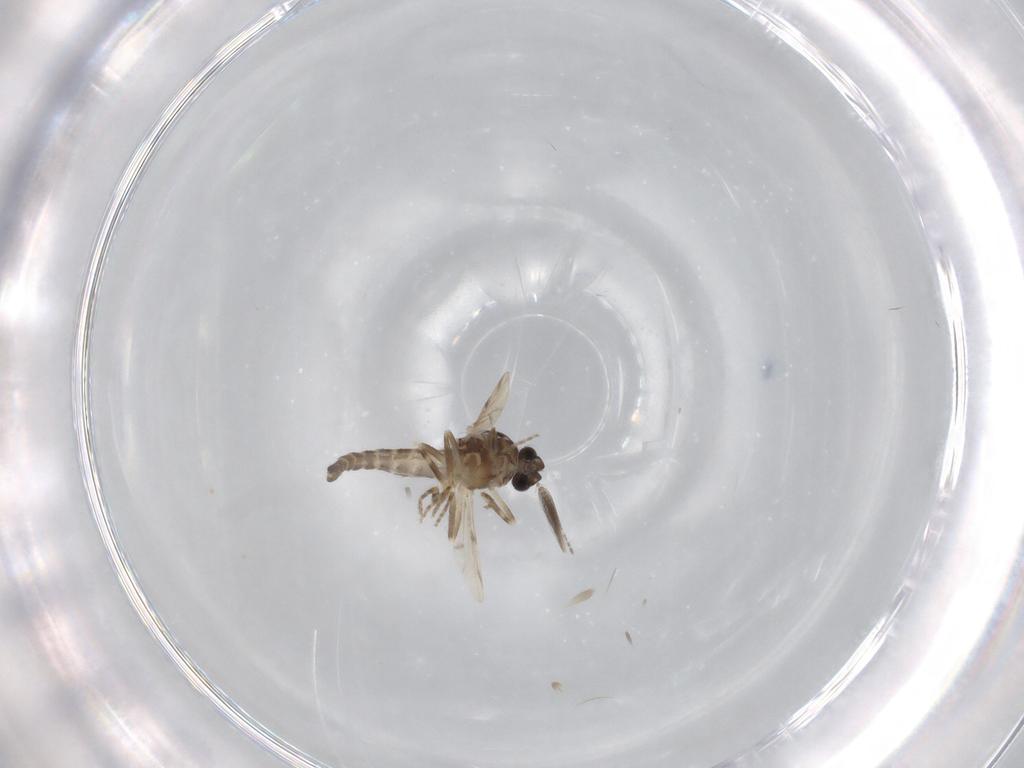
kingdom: Animalia
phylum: Arthropoda
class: Insecta
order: Diptera
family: Ceratopogonidae
